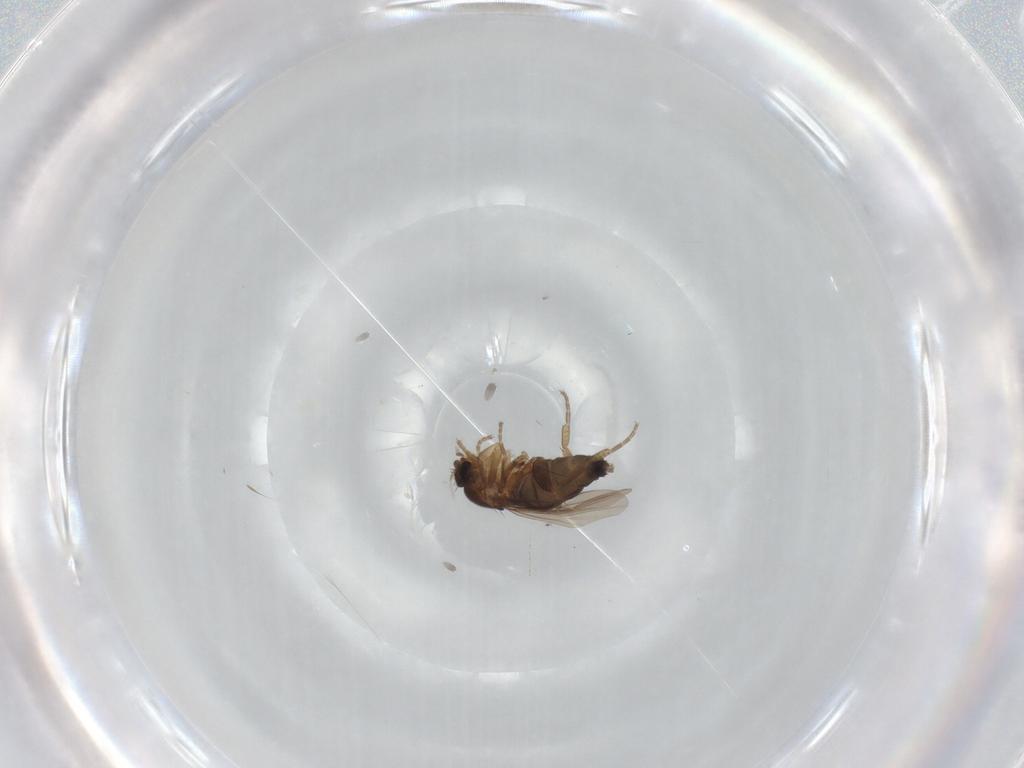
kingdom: Animalia
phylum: Arthropoda
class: Insecta
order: Diptera
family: Phoridae
